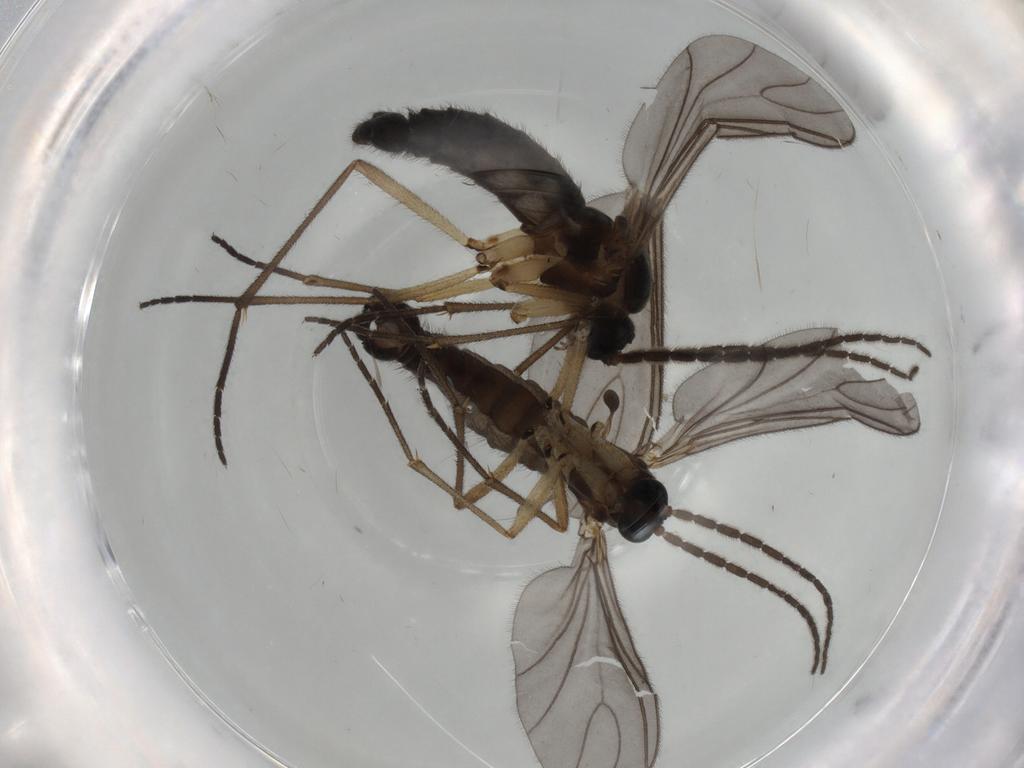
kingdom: Animalia
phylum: Arthropoda
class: Insecta
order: Diptera
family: Sciaridae
